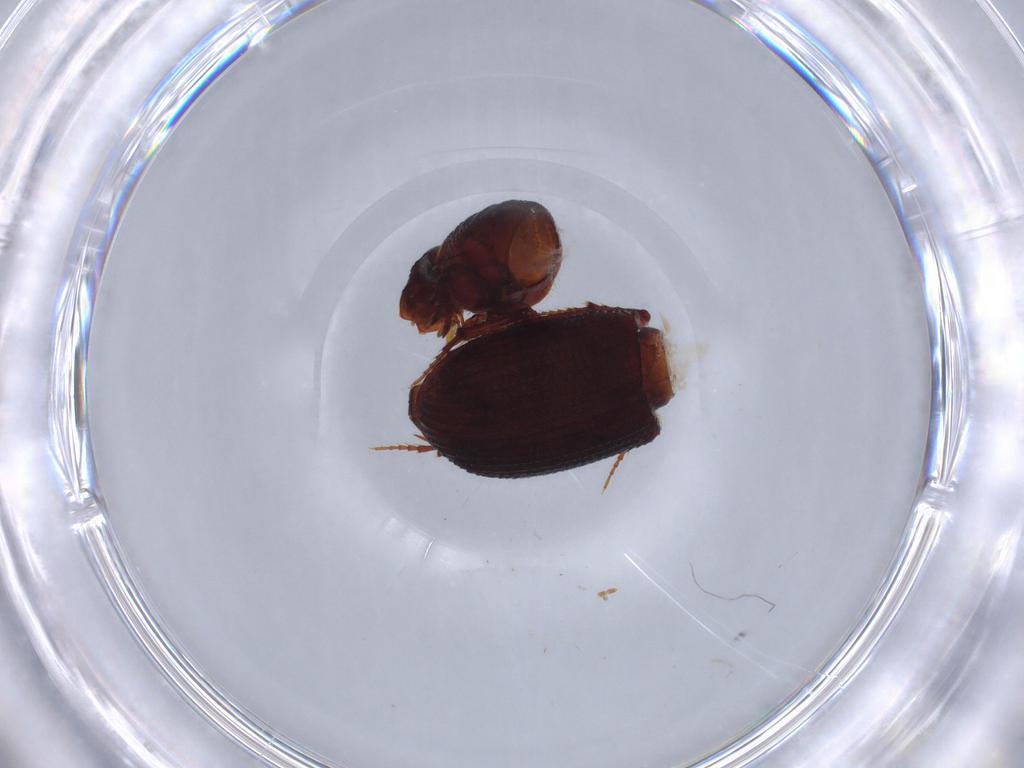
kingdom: Animalia
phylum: Arthropoda
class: Insecta
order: Coleoptera
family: Scarabaeidae
